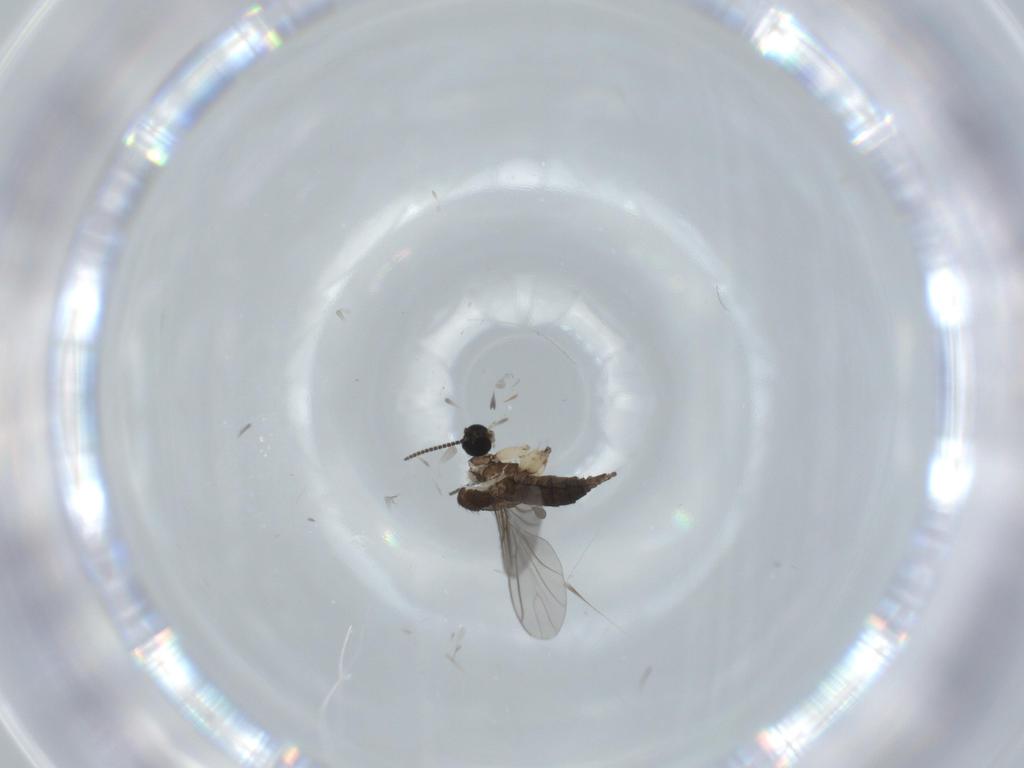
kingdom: Animalia
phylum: Arthropoda
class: Insecta
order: Diptera
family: Sciaridae
